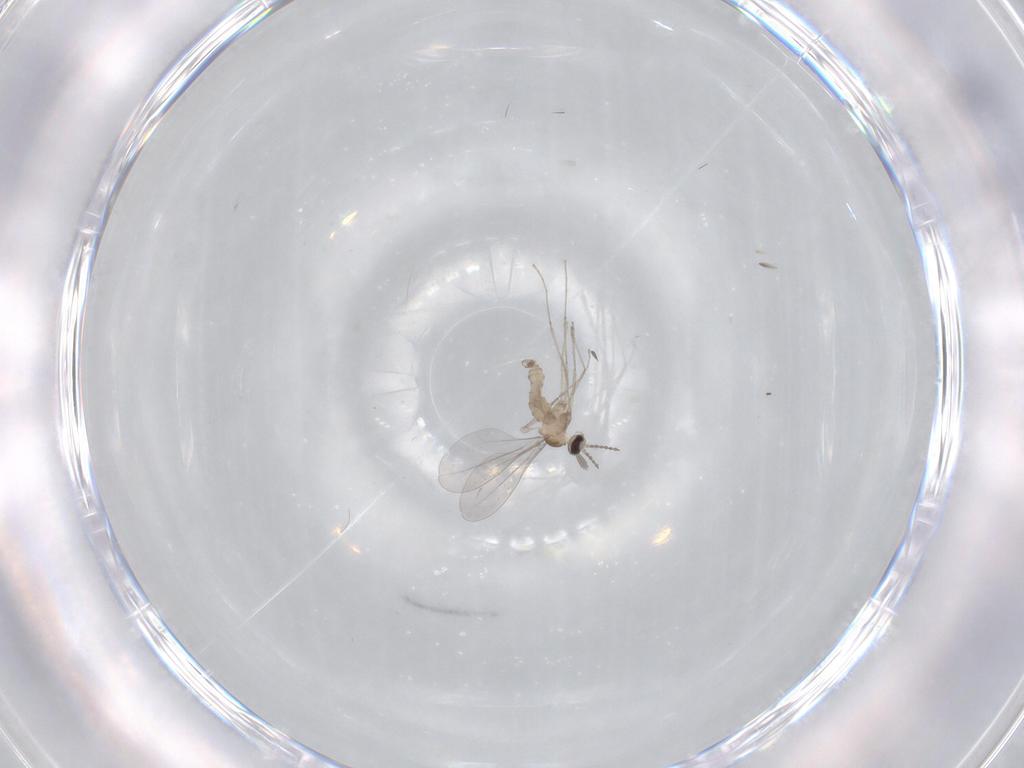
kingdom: Animalia
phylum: Arthropoda
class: Insecta
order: Diptera
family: Cecidomyiidae
